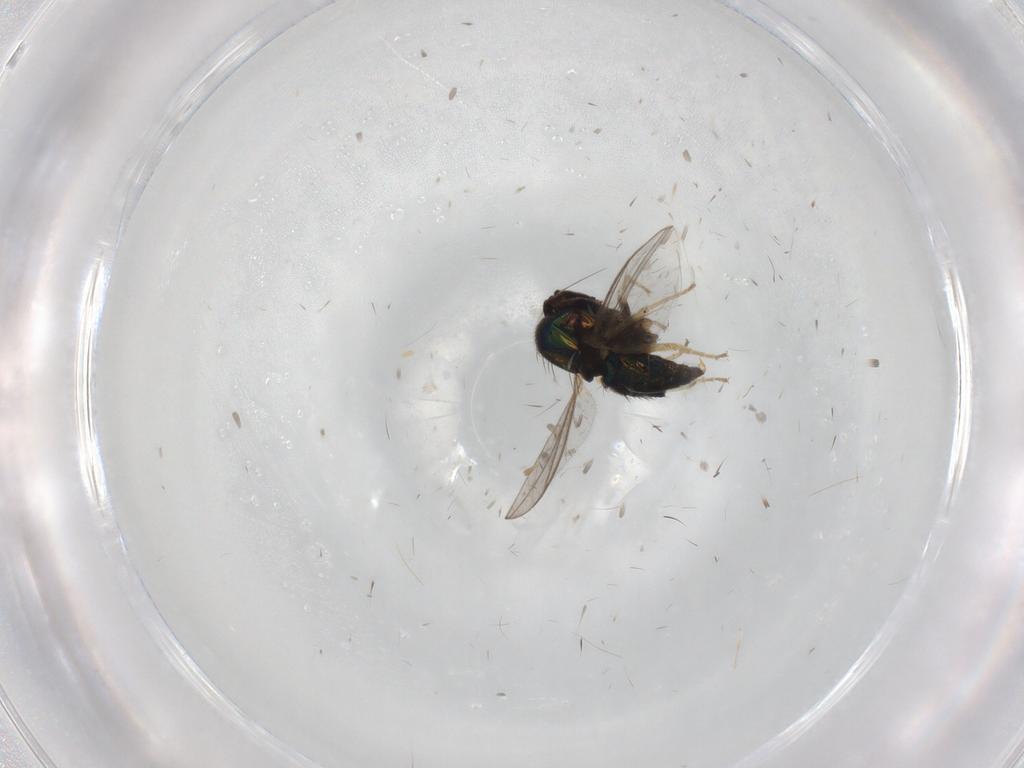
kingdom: Animalia
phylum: Arthropoda
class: Insecta
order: Diptera
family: Dolichopodidae
